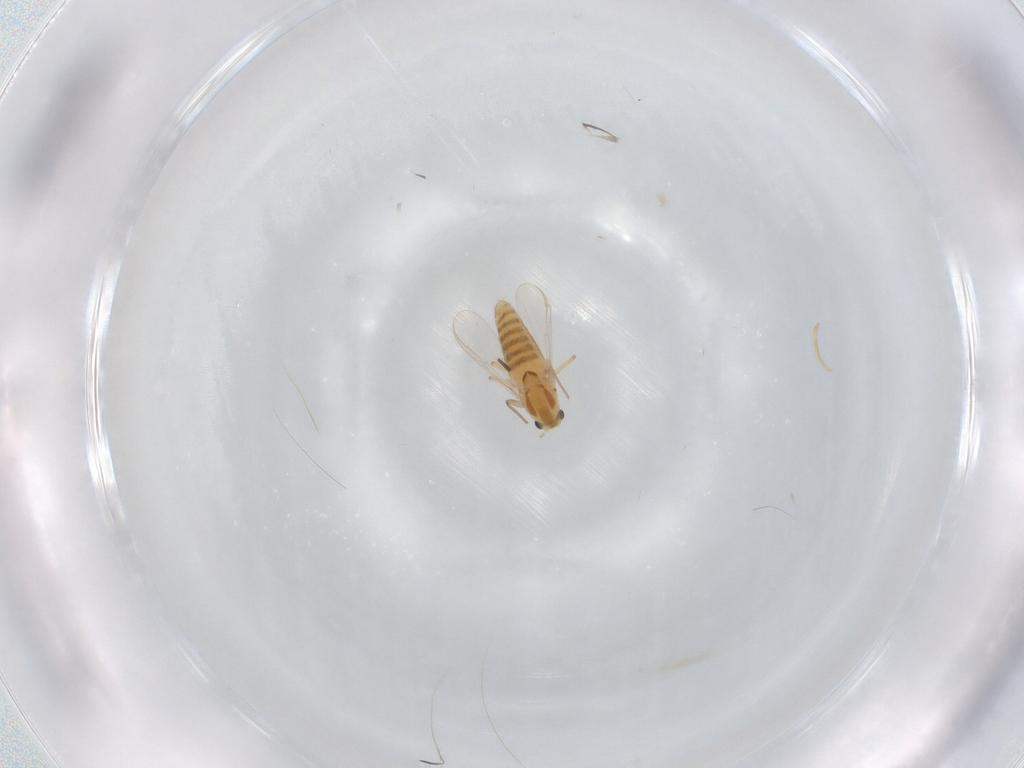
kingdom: Animalia
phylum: Arthropoda
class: Insecta
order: Diptera
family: Chironomidae
